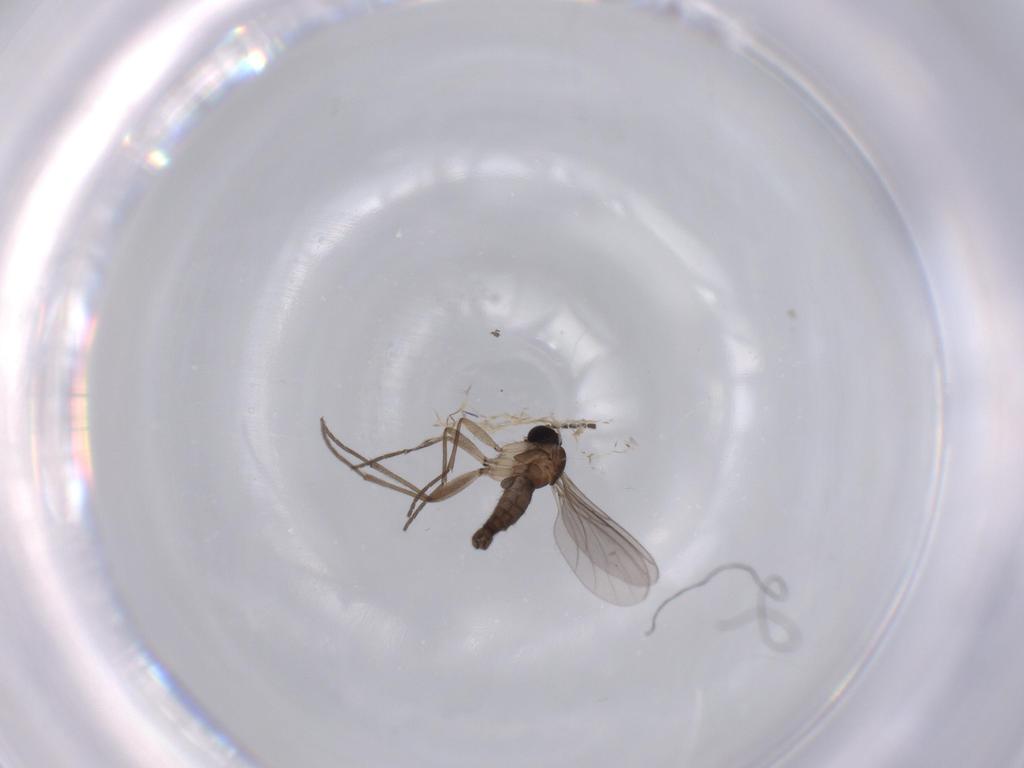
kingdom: Animalia
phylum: Arthropoda
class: Insecta
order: Diptera
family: Sciaridae
